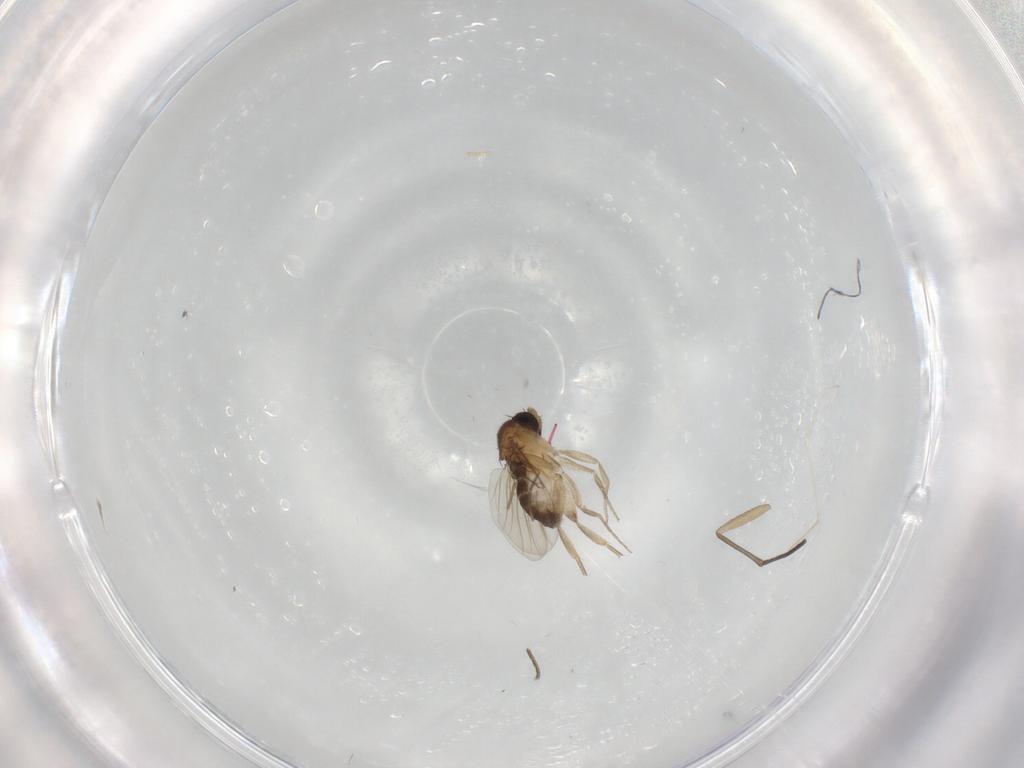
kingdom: Animalia
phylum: Arthropoda
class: Insecta
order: Diptera
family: Phoridae
